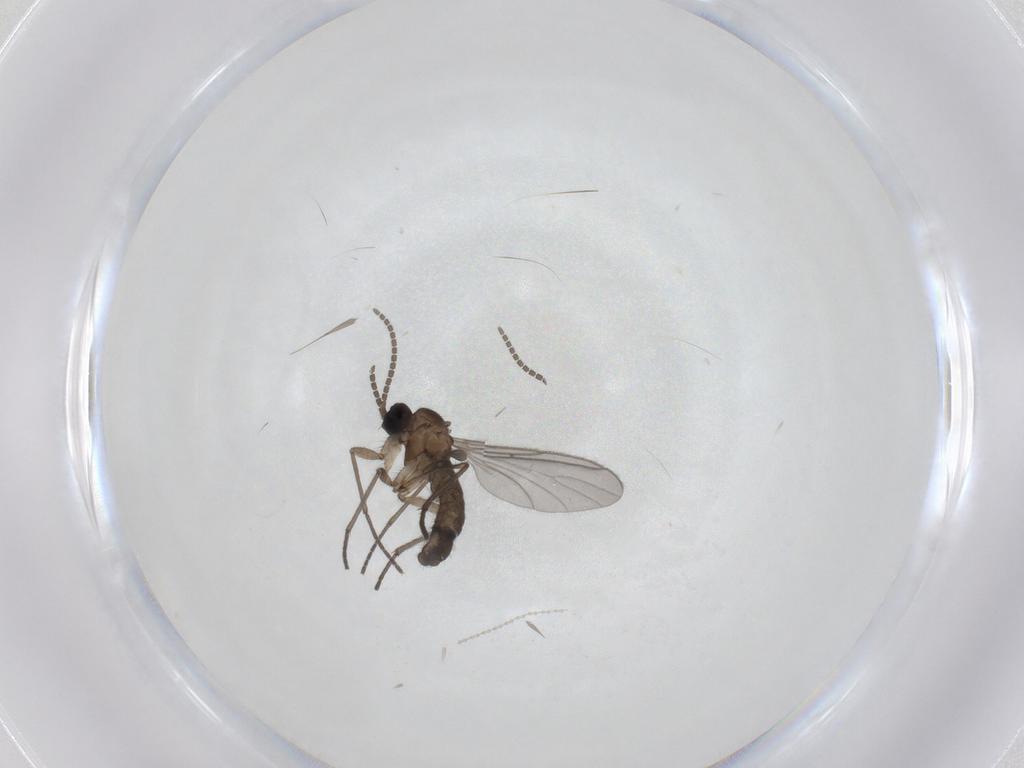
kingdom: Animalia
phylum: Arthropoda
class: Insecta
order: Diptera
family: Sciaridae
